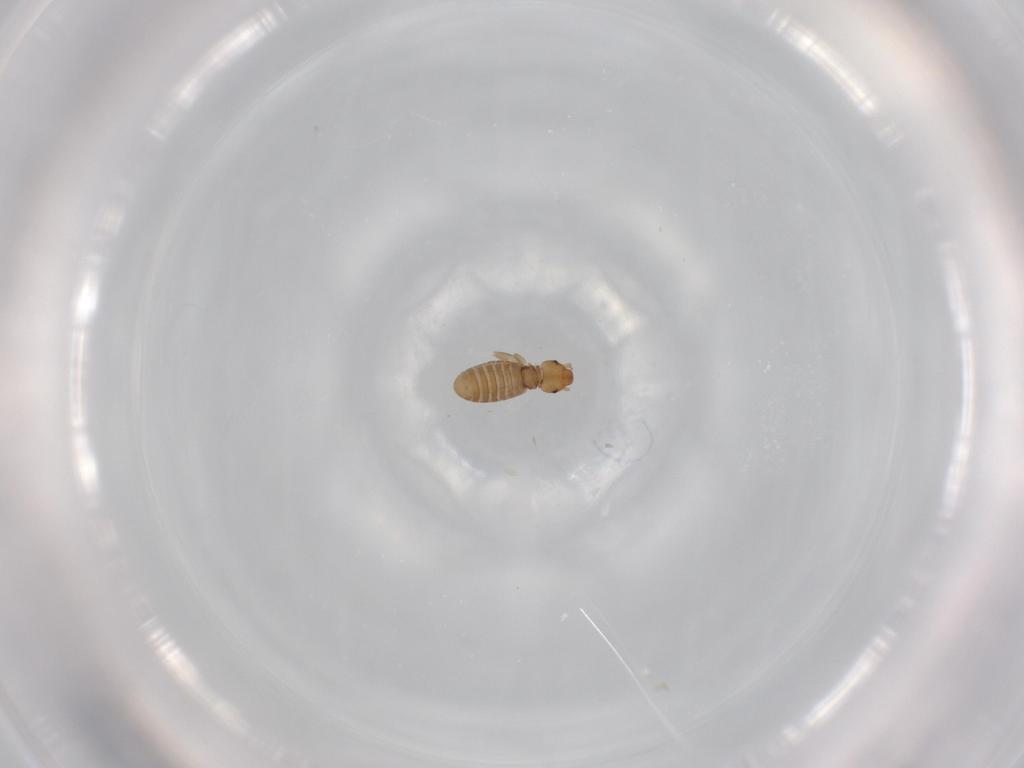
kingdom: Animalia
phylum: Arthropoda
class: Insecta
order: Psocodea
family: Liposcelididae
